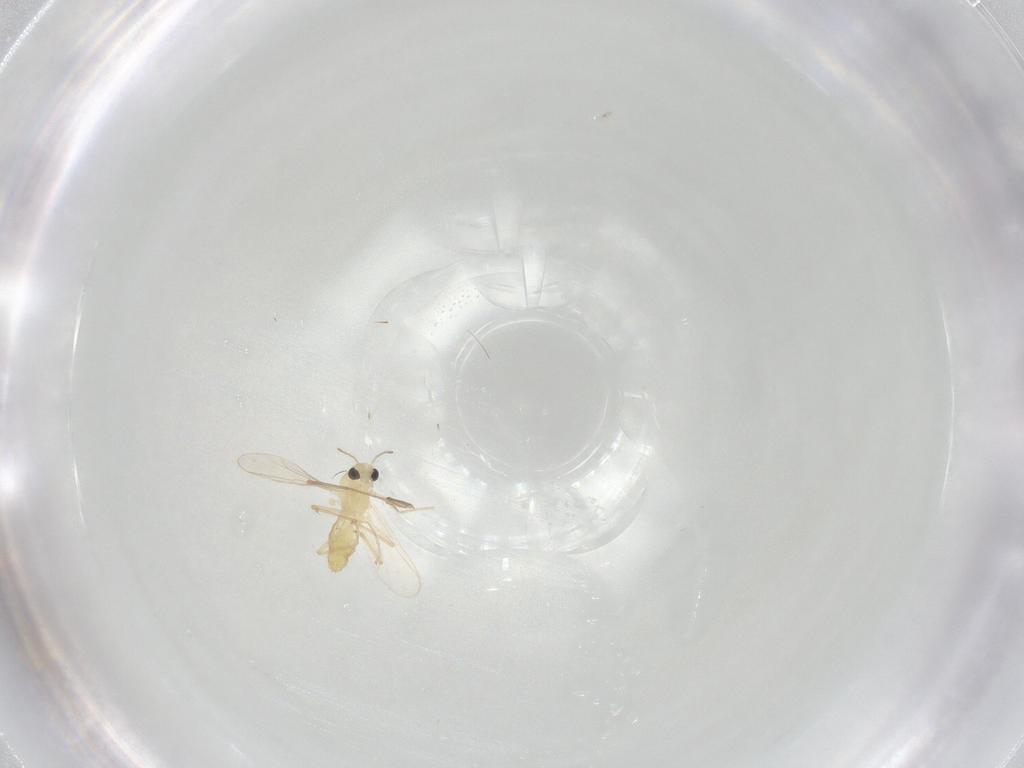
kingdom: Animalia
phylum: Arthropoda
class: Insecta
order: Diptera
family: Chironomidae
